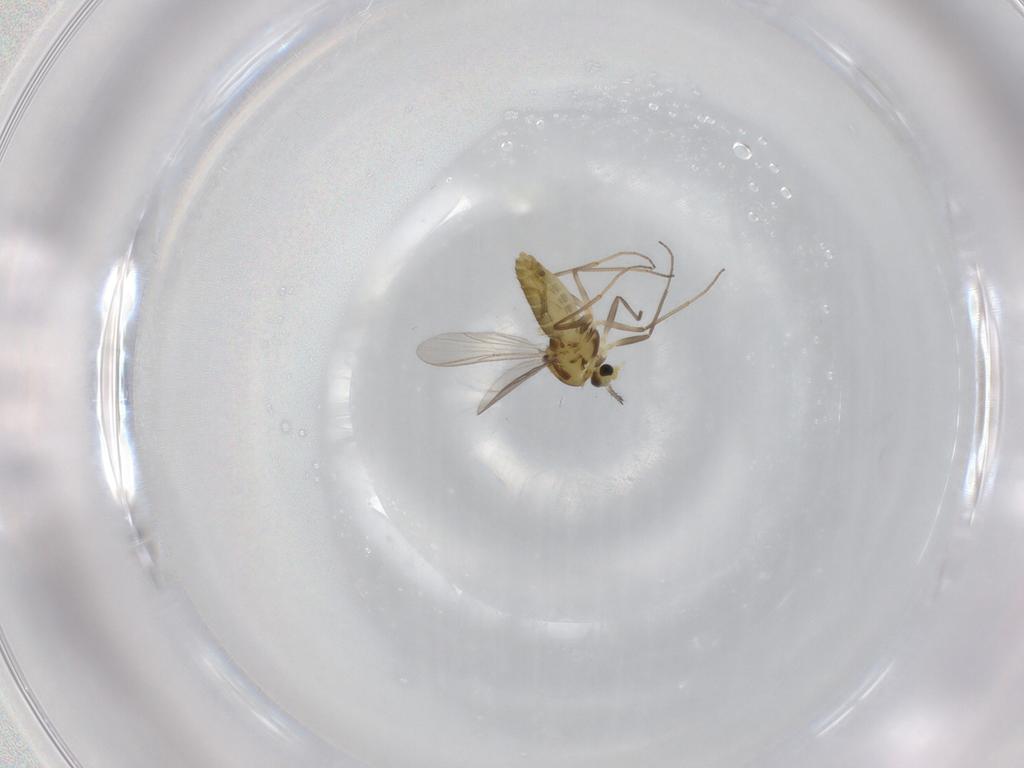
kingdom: Animalia
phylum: Arthropoda
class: Insecta
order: Diptera
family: Chironomidae
